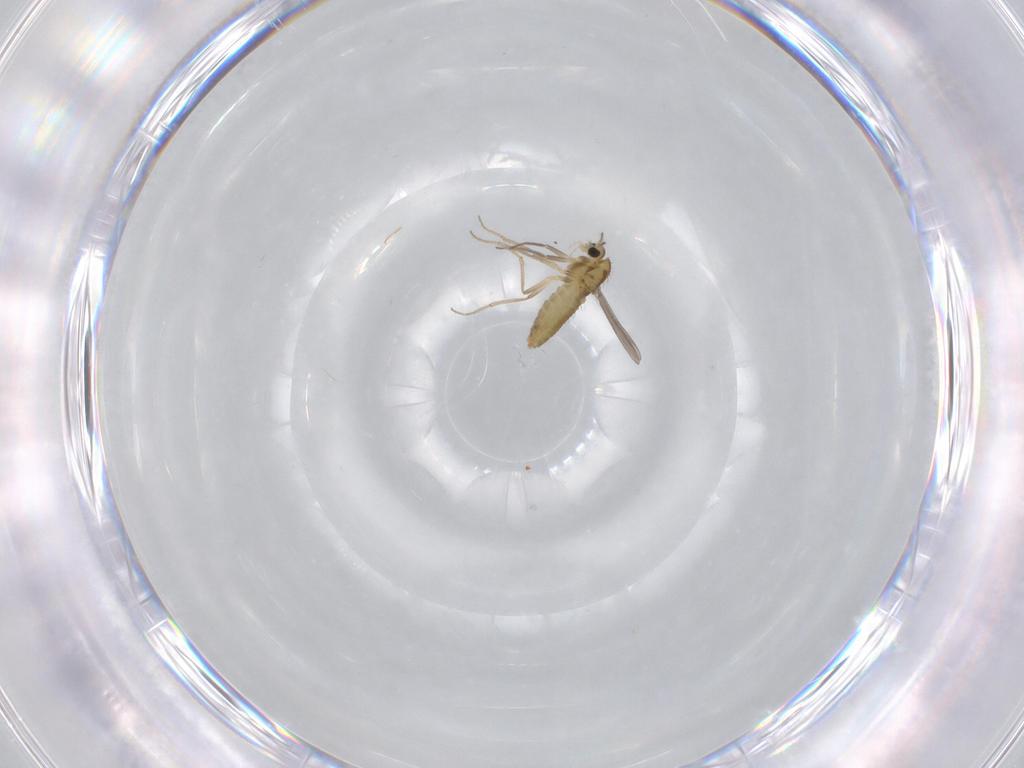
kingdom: Animalia
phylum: Arthropoda
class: Insecta
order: Diptera
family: Chironomidae
